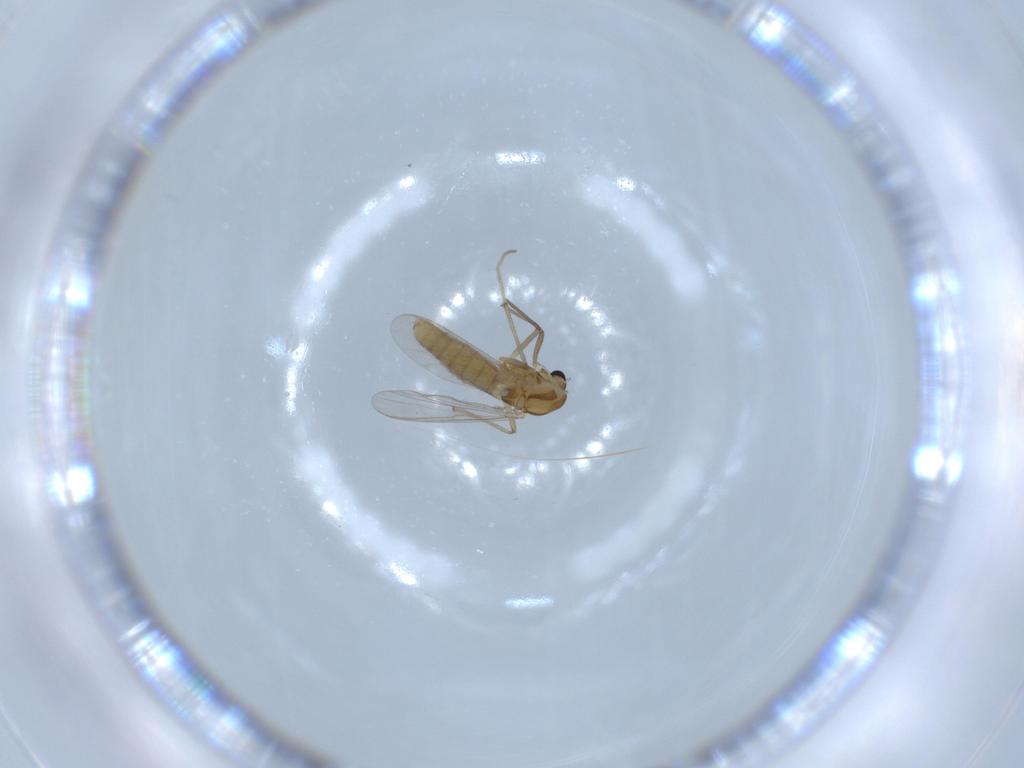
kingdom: Animalia
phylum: Arthropoda
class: Insecta
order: Diptera
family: Chironomidae
